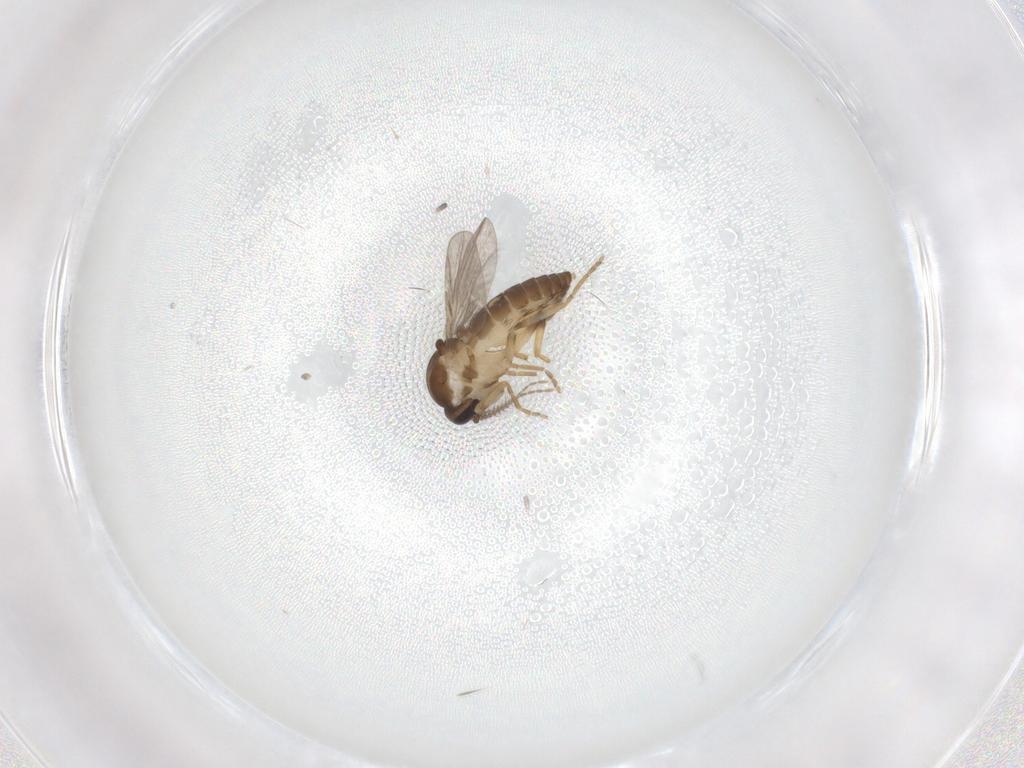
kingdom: Animalia
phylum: Arthropoda
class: Insecta
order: Diptera
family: Ceratopogonidae
